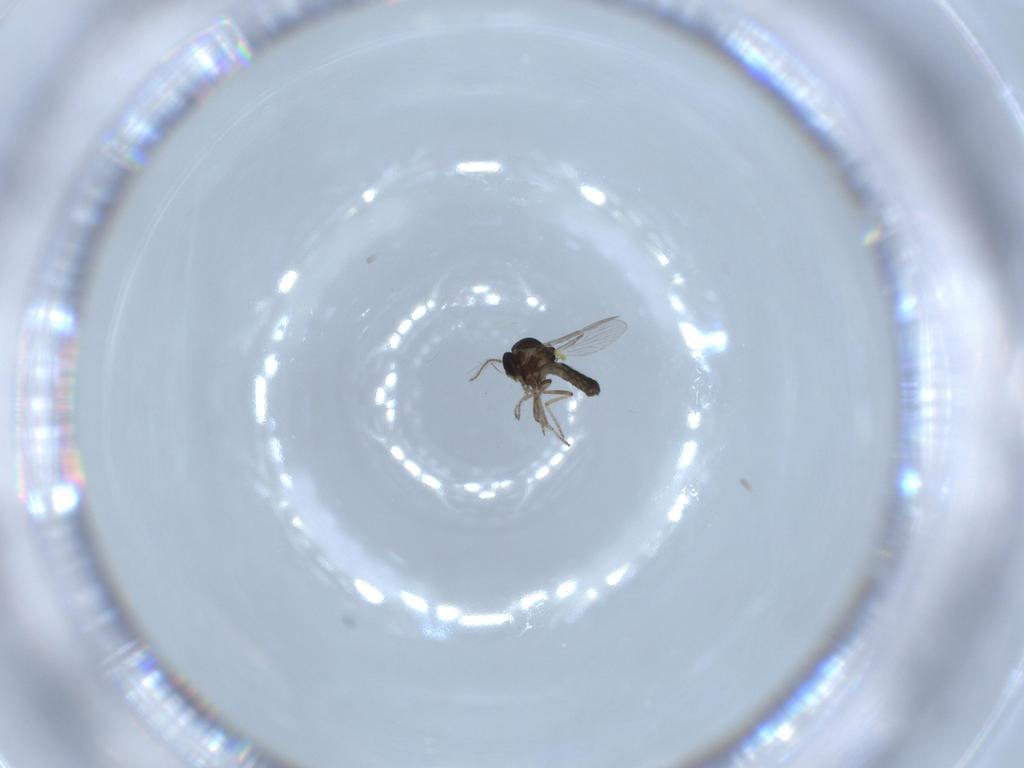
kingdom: Animalia
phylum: Arthropoda
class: Insecta
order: Diptera
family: Ceratopogonidae
